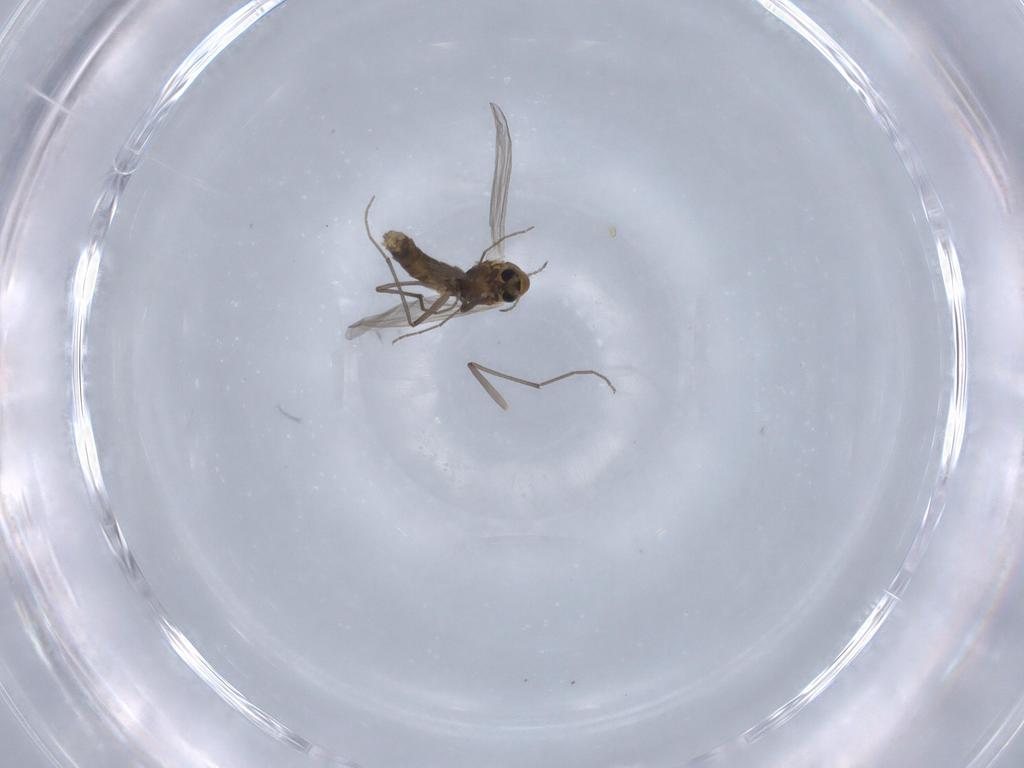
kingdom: Animalia
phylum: Arthropoda
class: Insecta
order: Diptera
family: Chironomidae
